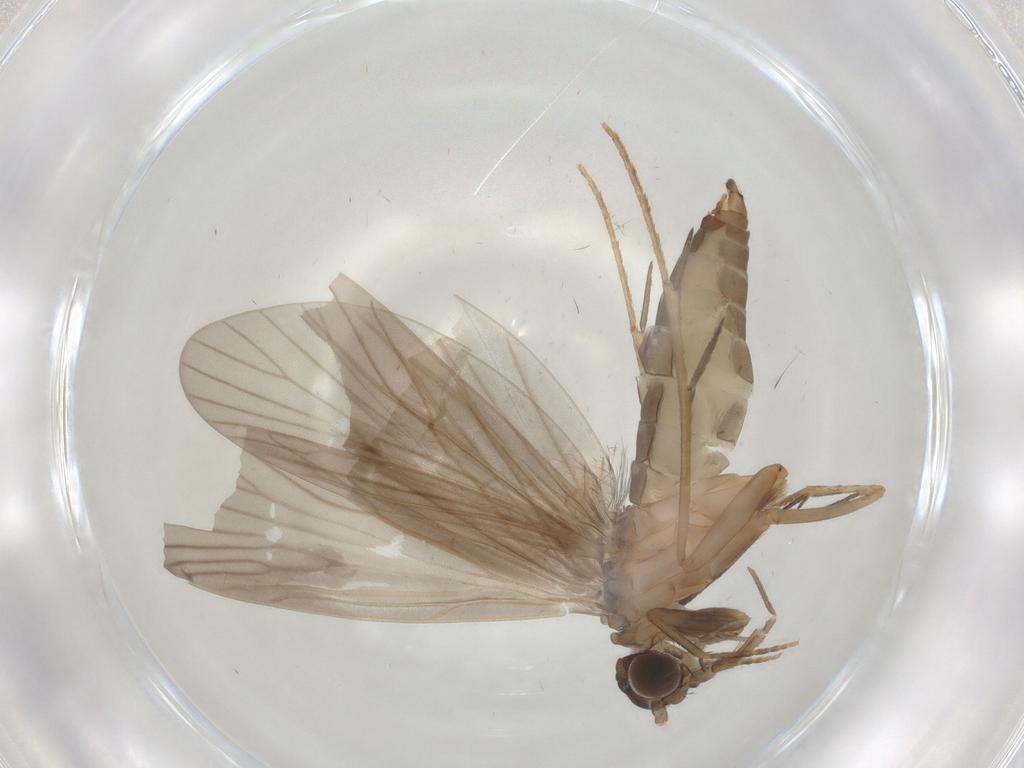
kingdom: Animalia
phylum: Arthropoda
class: Insecta
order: Trichoptera
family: Philopotamidae
